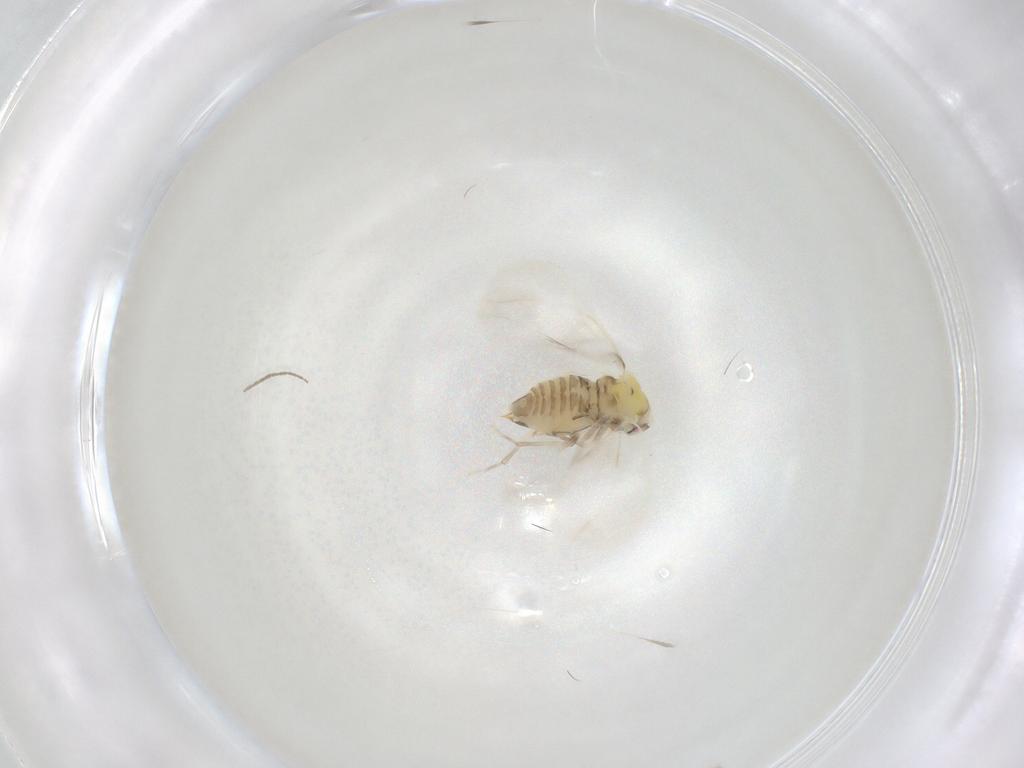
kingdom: Animalia
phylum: Arthropoda
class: Insecta
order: Hemiptera
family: Aleyrodidae
